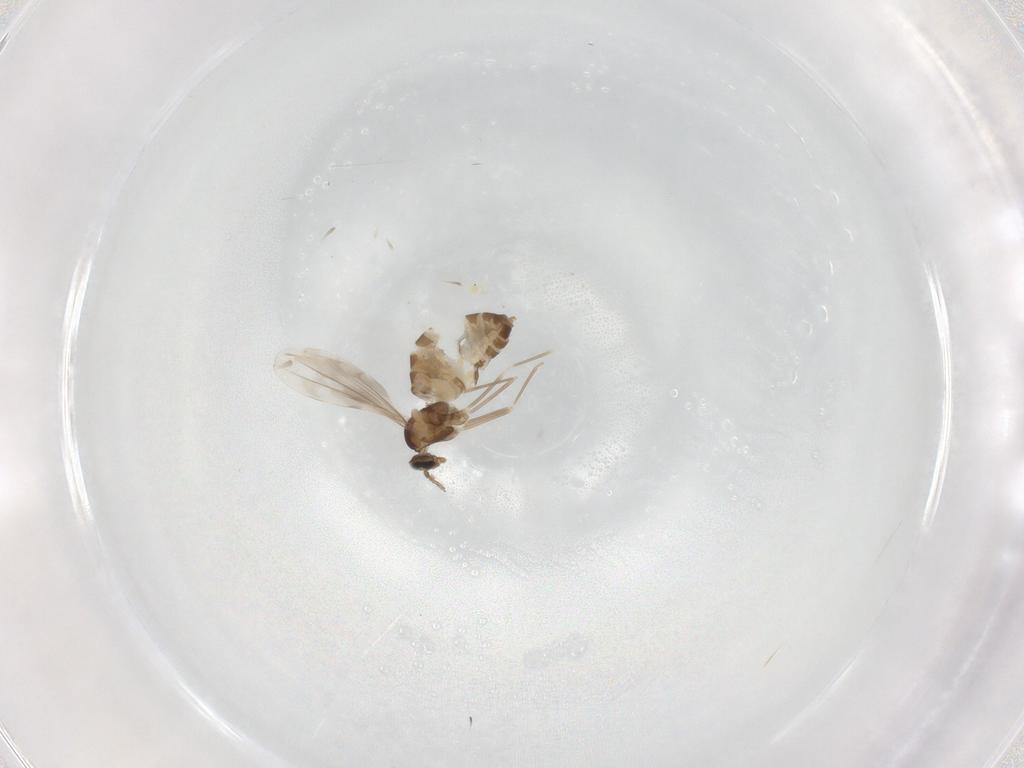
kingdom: Animalia
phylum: Arthropoda
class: Insecta
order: Diptera
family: Cecidomyiidae
